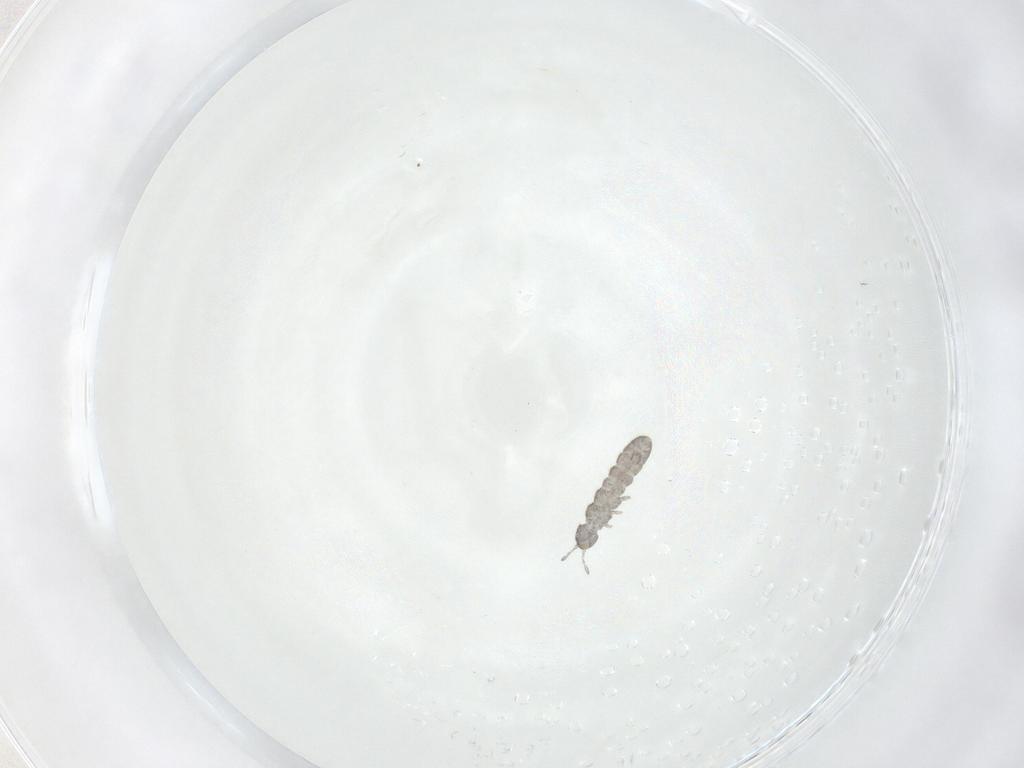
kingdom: Animalia
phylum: Arthropoda
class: Collembola
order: Entomobryomorpha
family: Isotomidae
